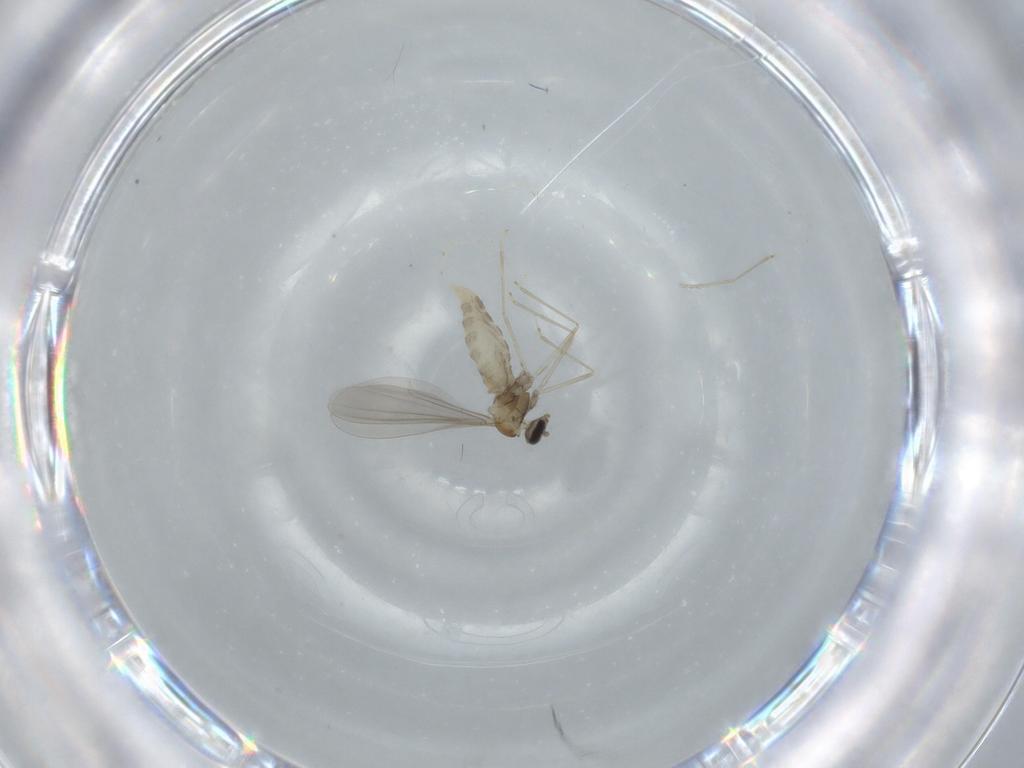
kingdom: Animalia
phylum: Arthropoda
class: Insecta
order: Diptera
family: Cecidomyiidae
